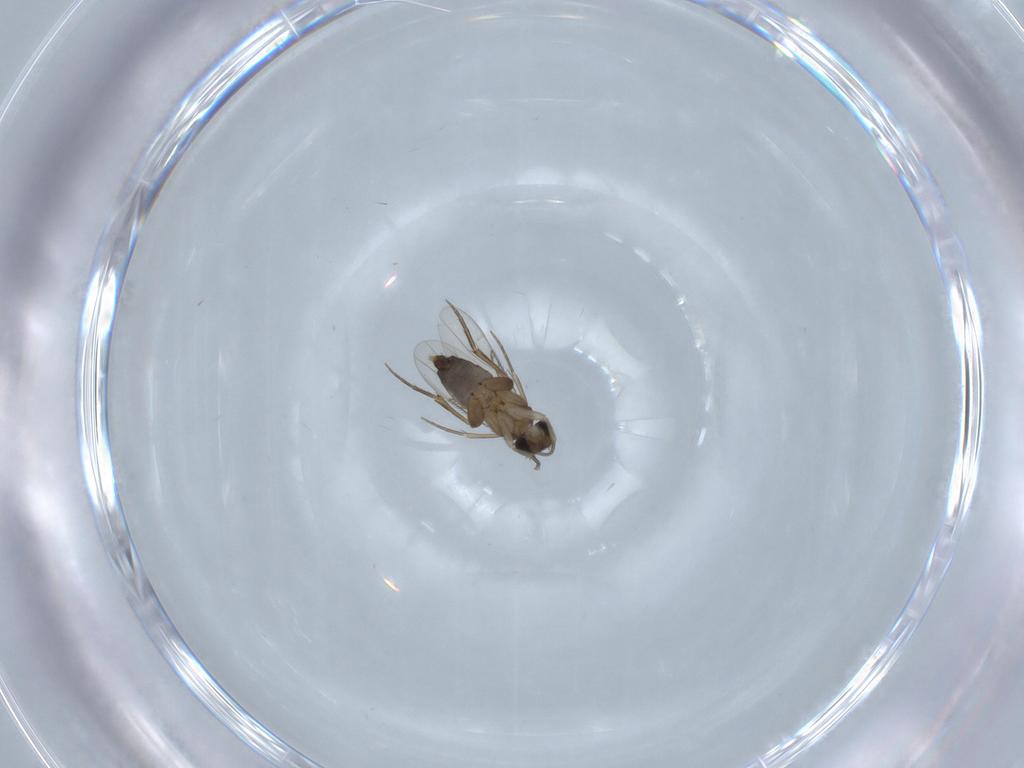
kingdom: Animalia
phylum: Arthropoda
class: Insecta
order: Diptera
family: Psychodidae
